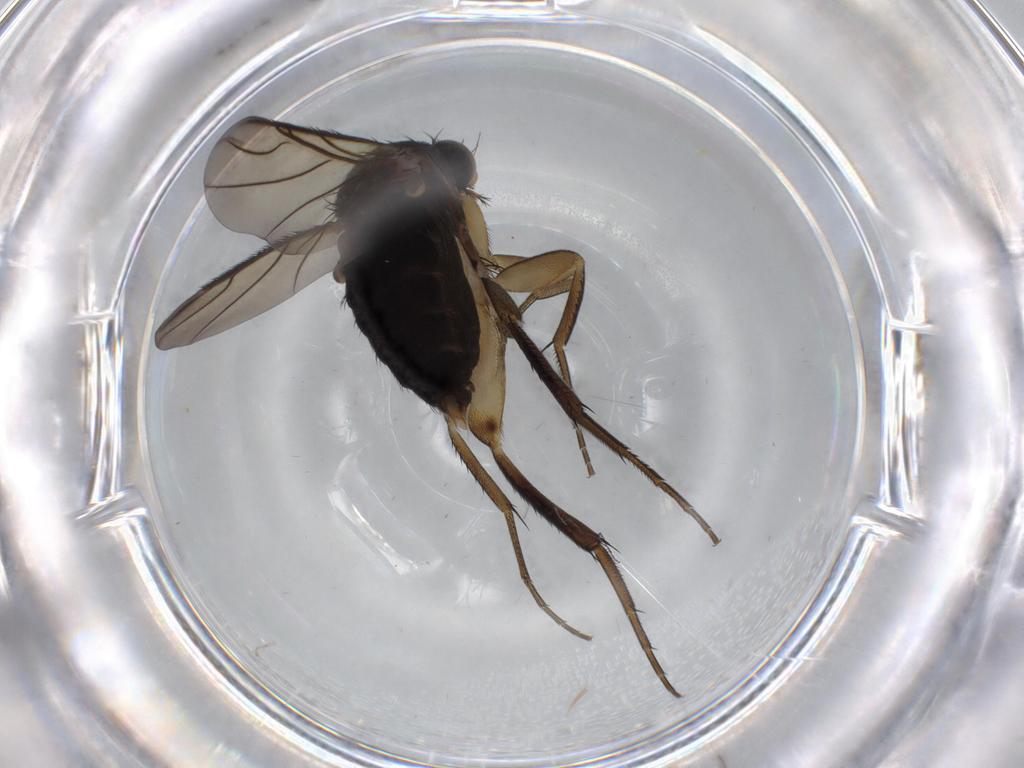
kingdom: Animalia
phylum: Arthropoda
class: Insecta
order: Diptera
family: Phoridae
